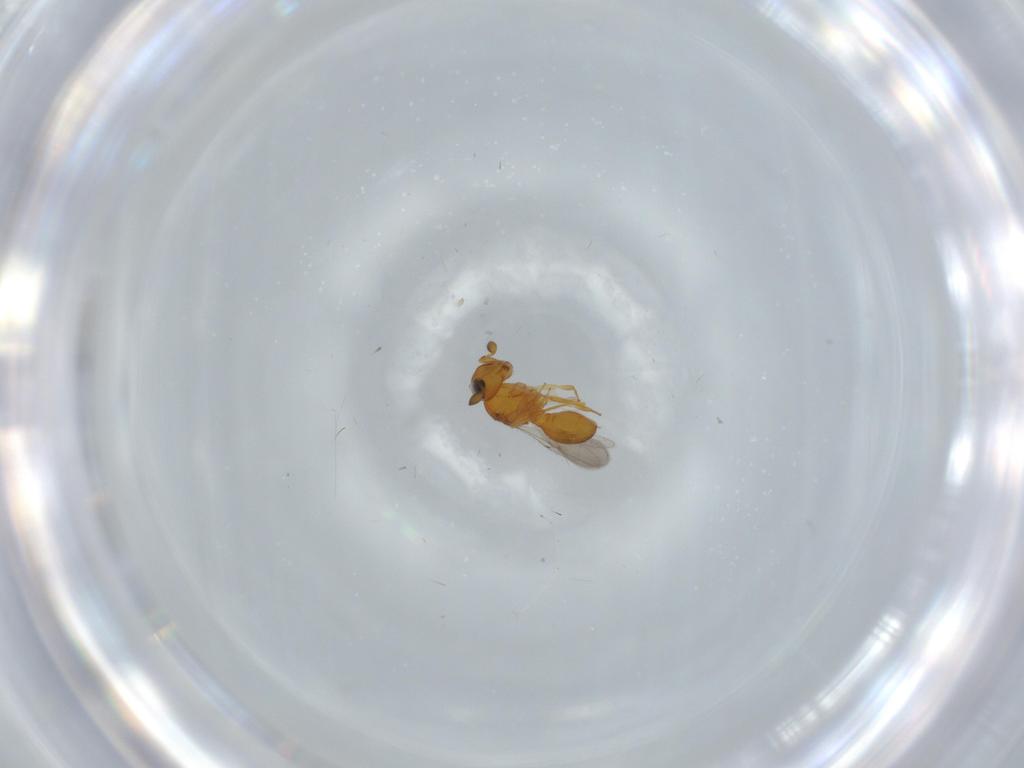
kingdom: Animalia
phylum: Arthropoda
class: Insecta
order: Hymenoptera
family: Scelionidae
